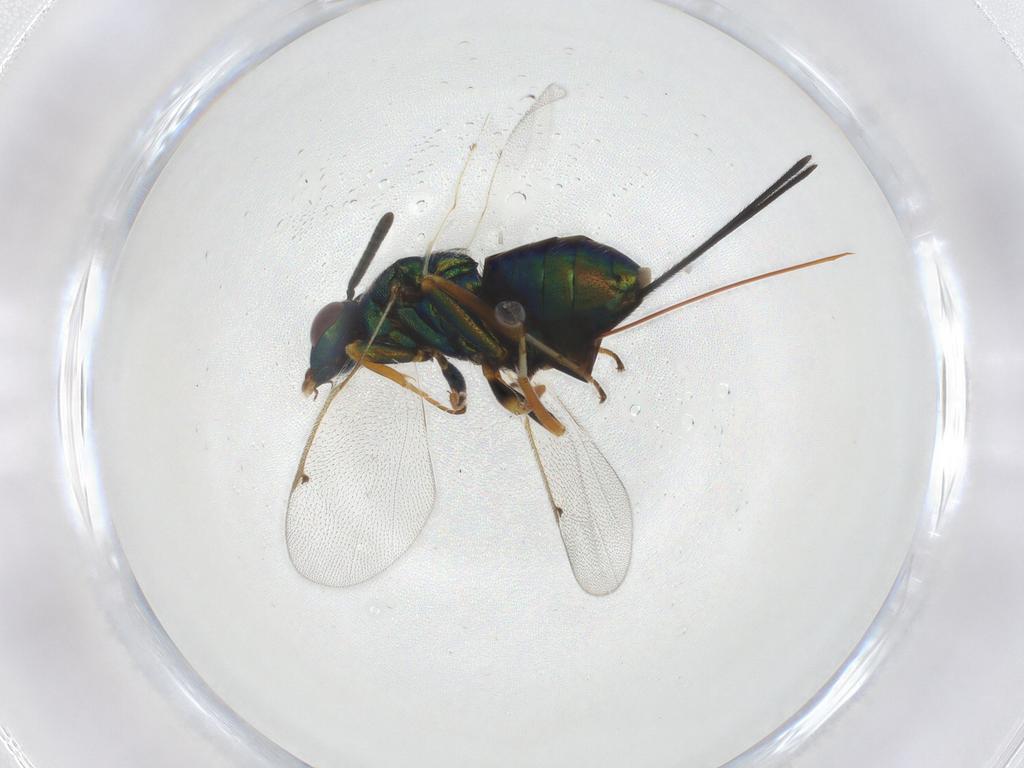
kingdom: Animalia
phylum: Arthropoda
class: Insecta
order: Hymenoptera
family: Torymidae
